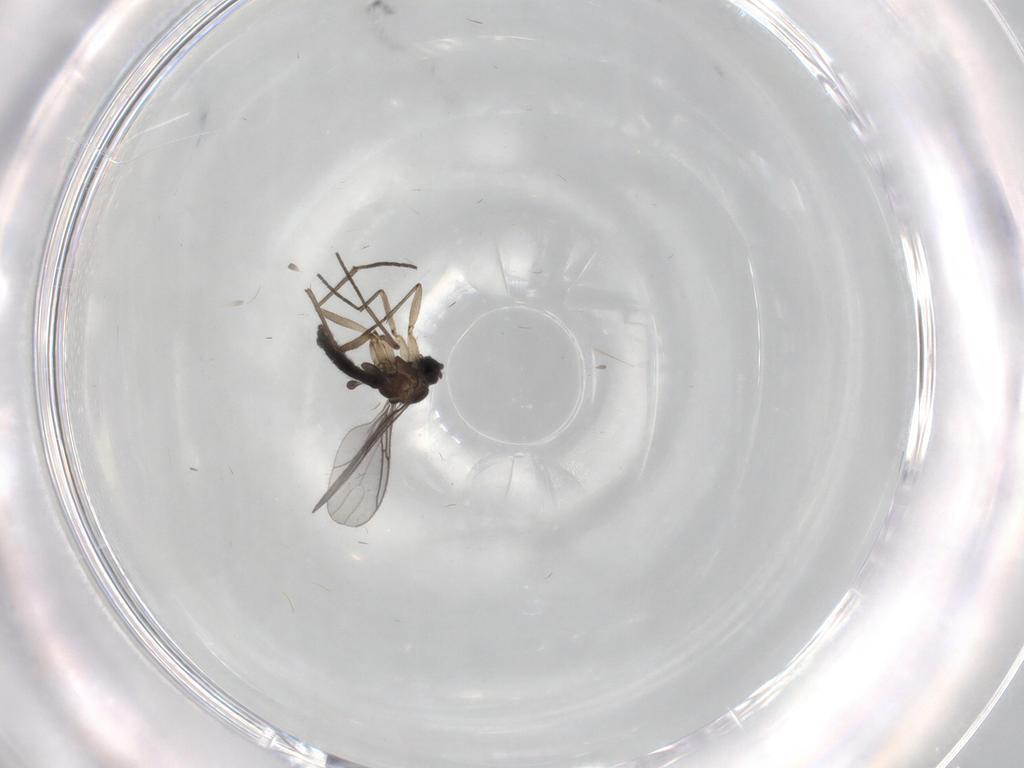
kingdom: Animalia
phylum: Arthropoda
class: Insecta
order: Diptera
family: Sciaridae
